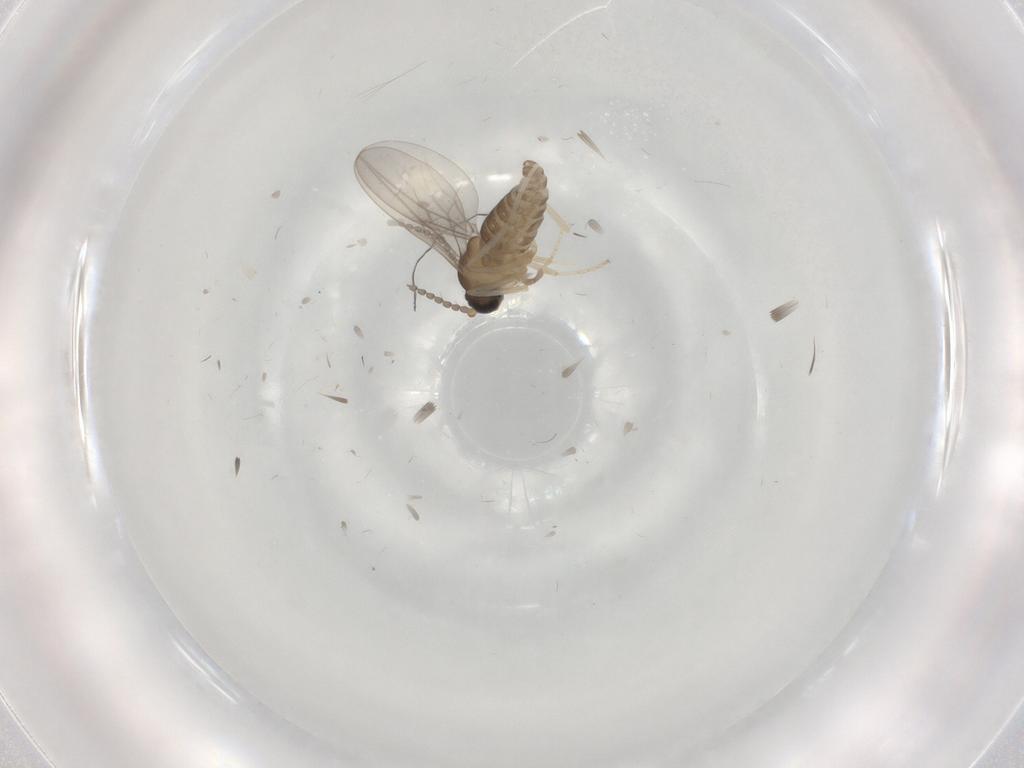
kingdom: Animalia
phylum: Arthropoda
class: Insecta
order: Diptera
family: Cecidomyiidae
